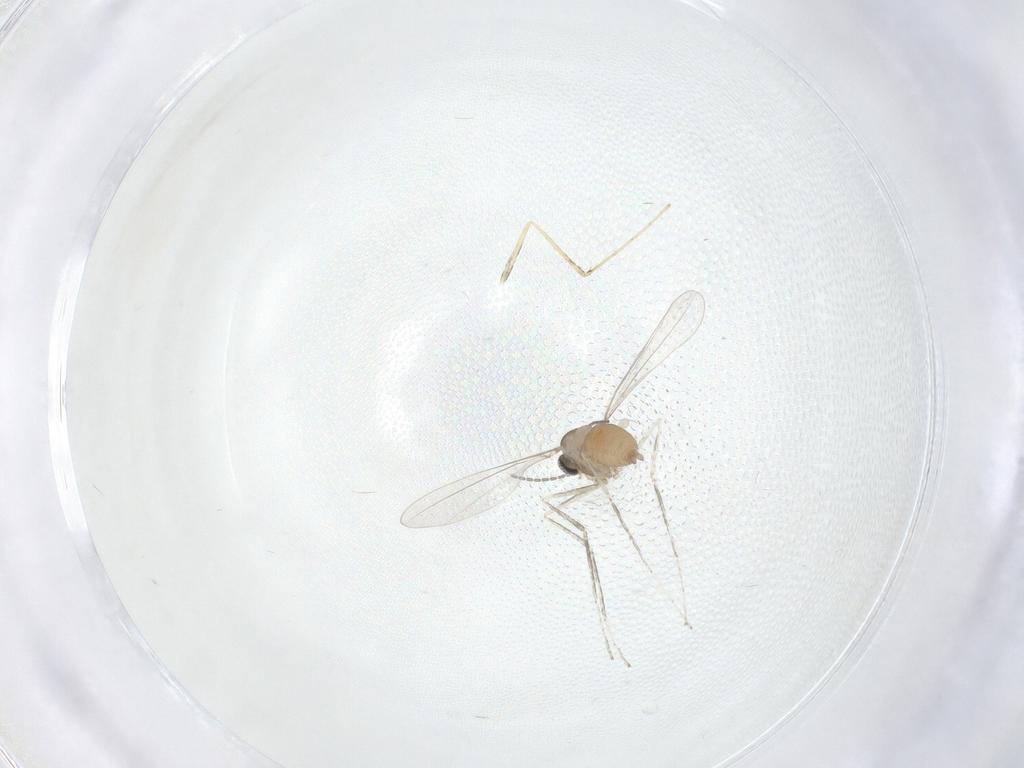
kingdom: Animalia
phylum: Arthropoda
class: Insecta
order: Diptera
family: Cecidomyiidae
